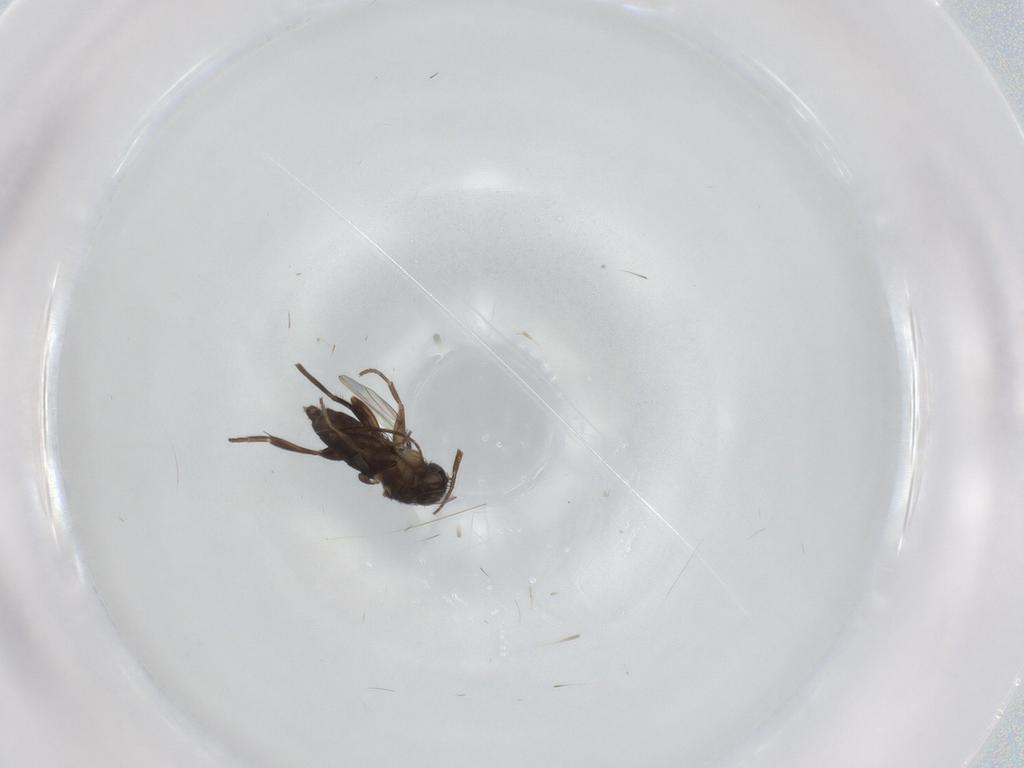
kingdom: Animalia
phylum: Arthropoda
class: Insecta
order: Diptera
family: Phoridae
